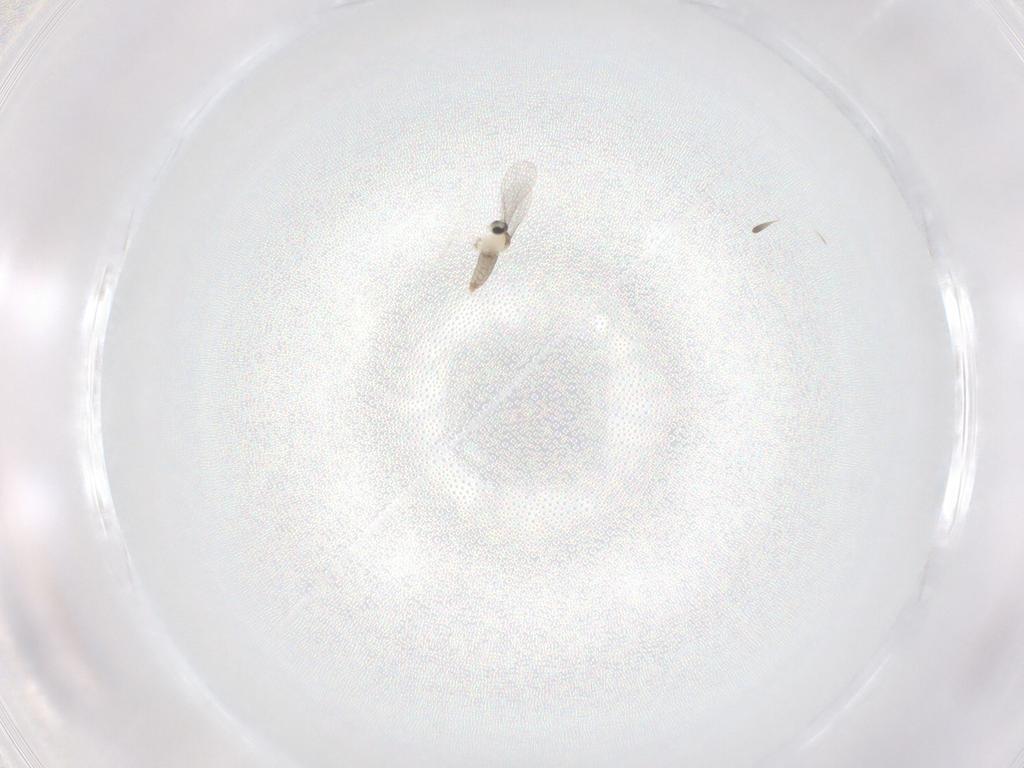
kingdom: Animalia
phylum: Arthropoda
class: Insecta
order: Diptera
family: Cecidomyiidae
